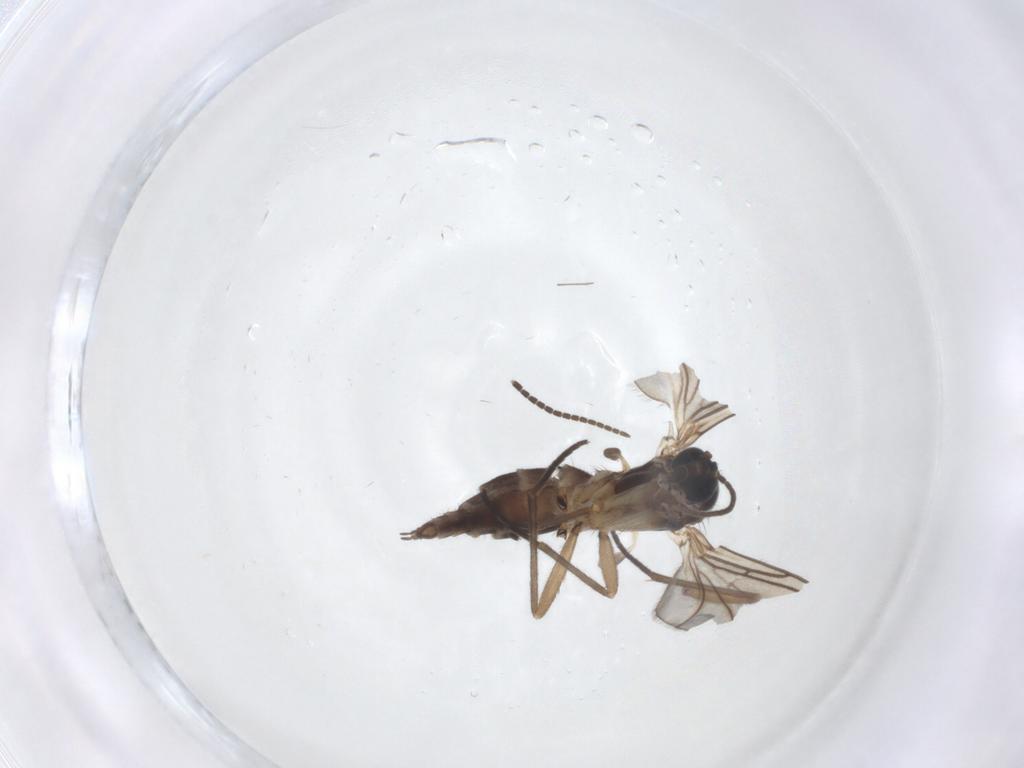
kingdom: Animalia
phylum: Arthropoda
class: Insecta
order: Diptera
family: Sciaridae
